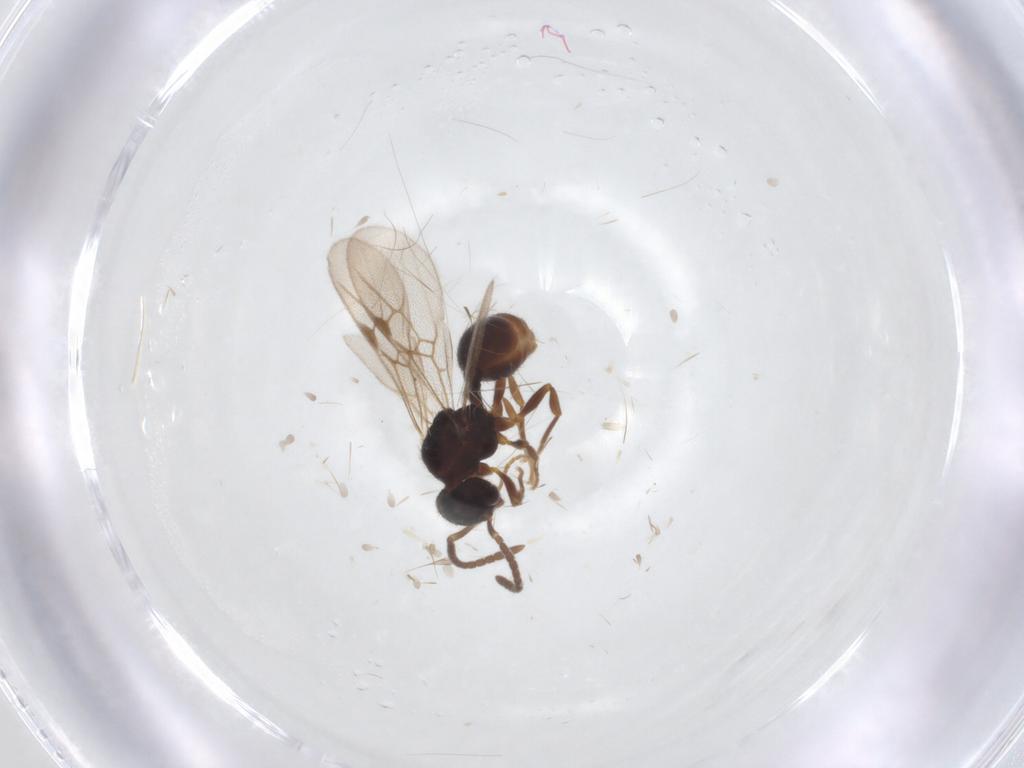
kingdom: Animalia
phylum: Arthropoda
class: Insecta
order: Hymenoptera
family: Formicidae
